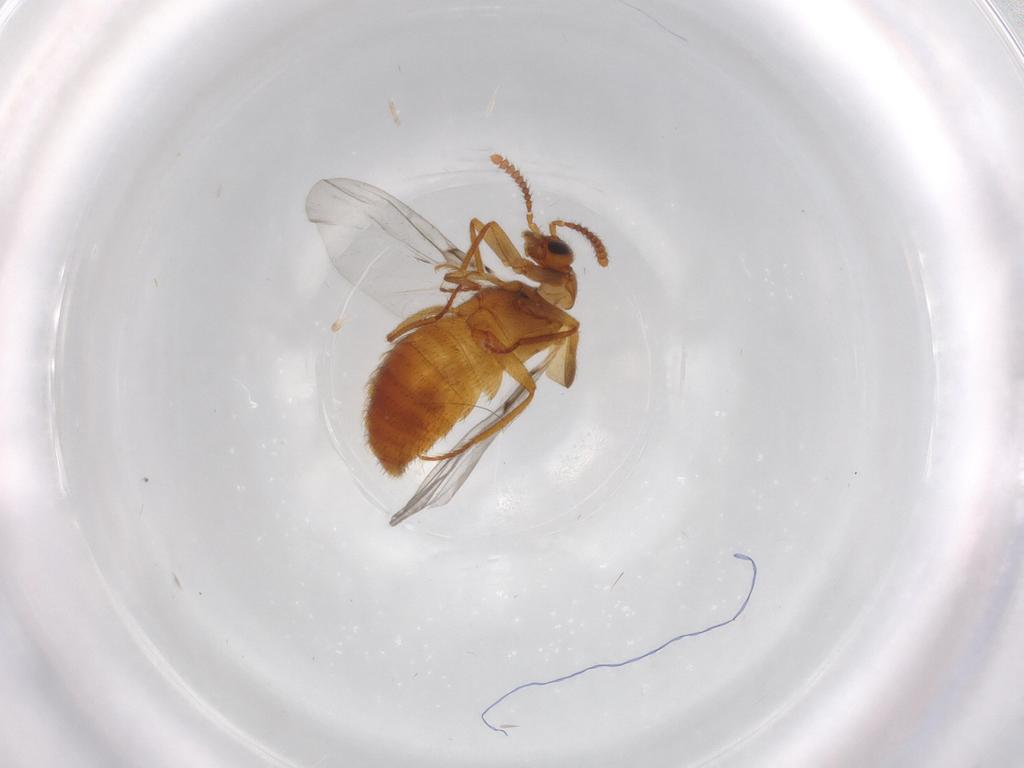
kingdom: Animalia
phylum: Arthropoda
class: Insecta
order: Coleoptera
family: Staphylinidae
